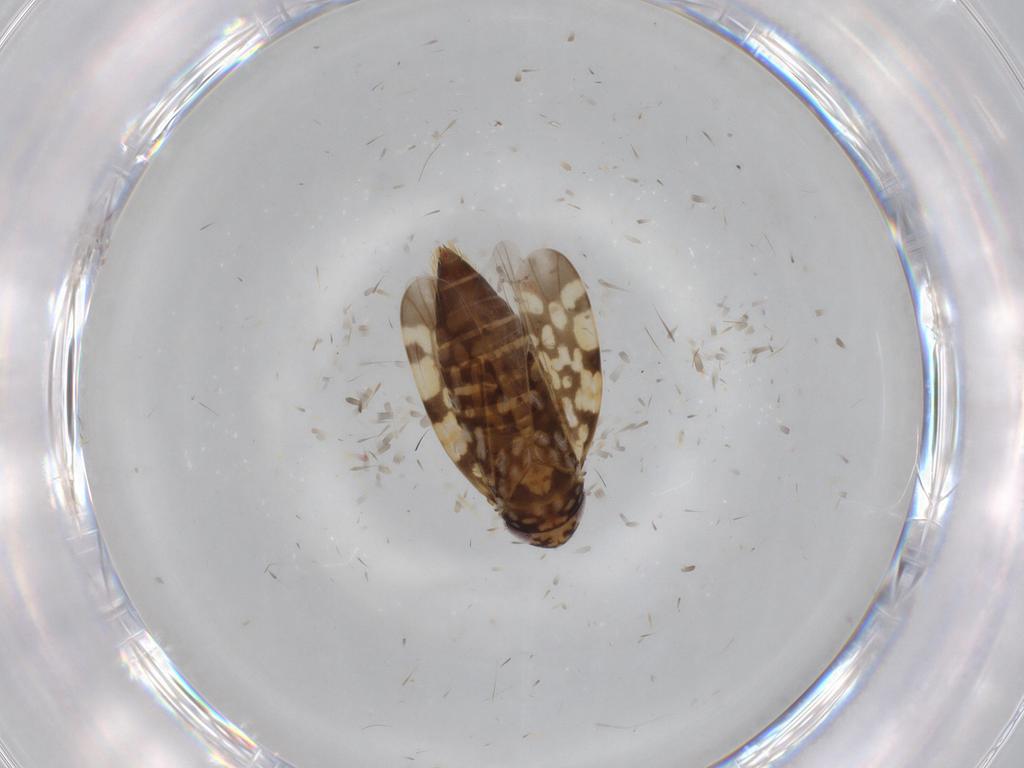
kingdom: Animalia
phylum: Arthropoda
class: Insecta
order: Hemiptera
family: Cicadellidae
